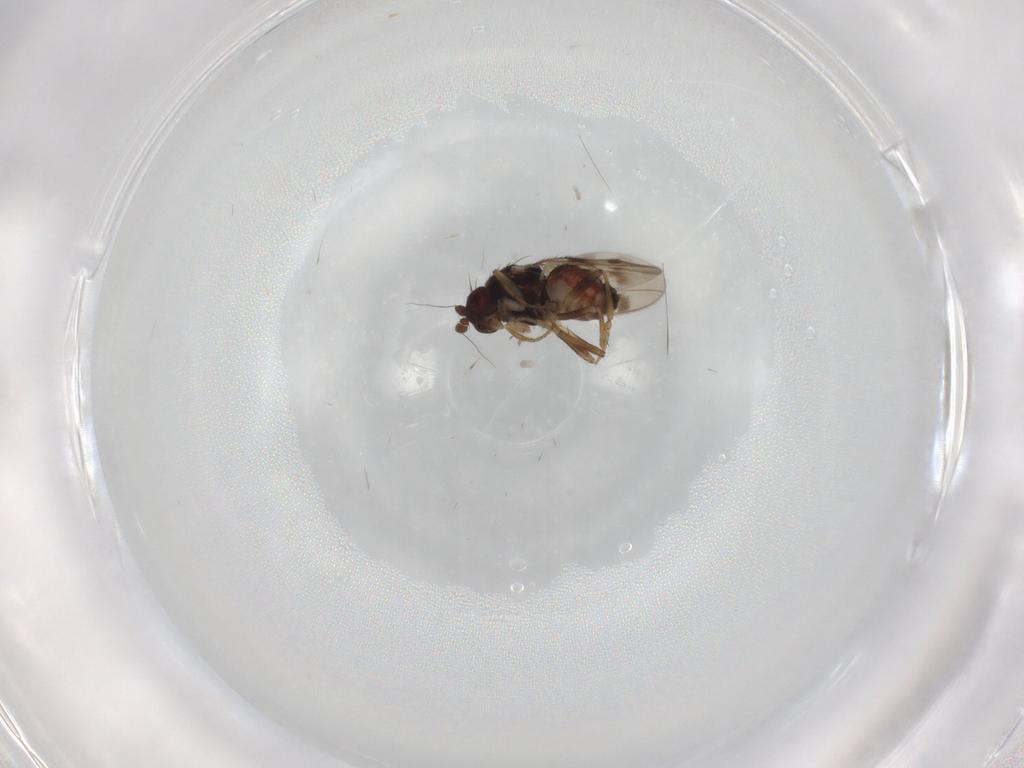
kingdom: Animalia
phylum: Arthropoda
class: Insecta
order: Diptera
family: Sphaeroceridae
